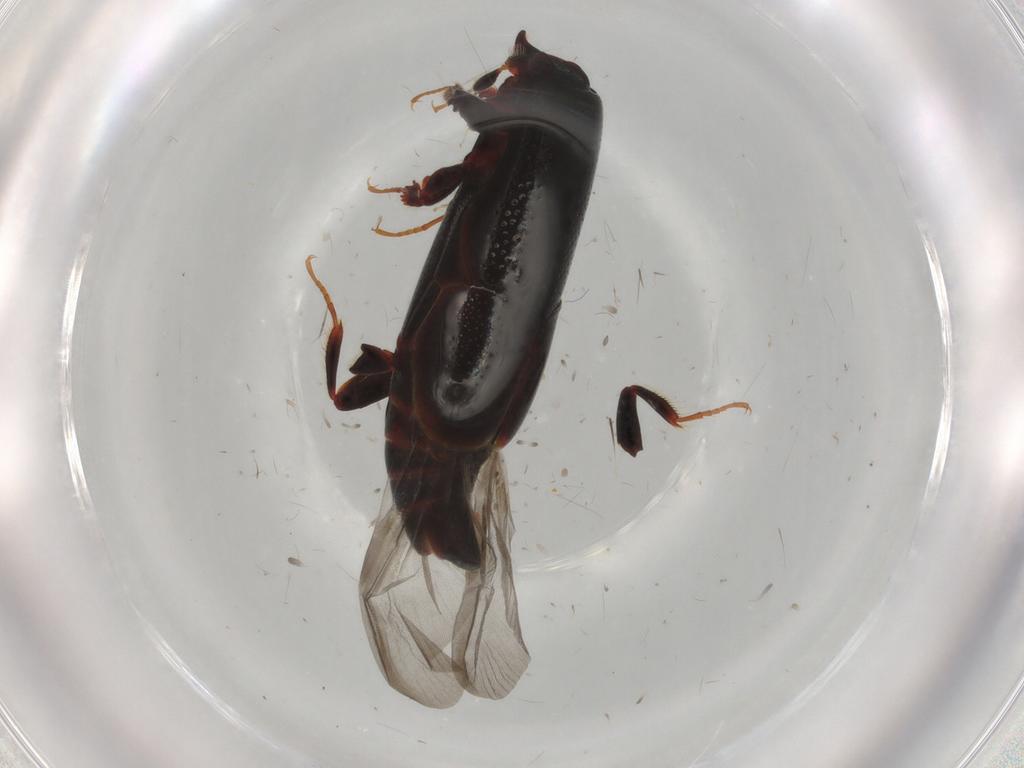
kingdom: Animalia
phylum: Arthropoda
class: Insecta
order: Coleoptera
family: Histeridae
